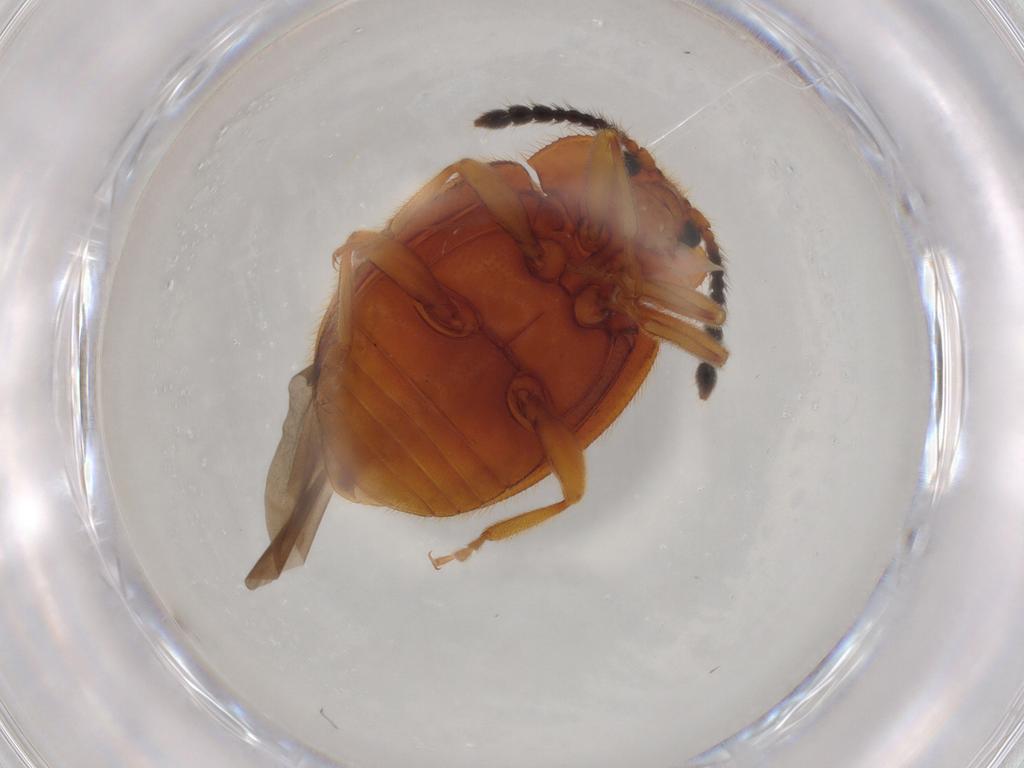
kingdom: Animalia
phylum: Arthropoda
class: Insecta
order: Coleoptera
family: Endomychidae
